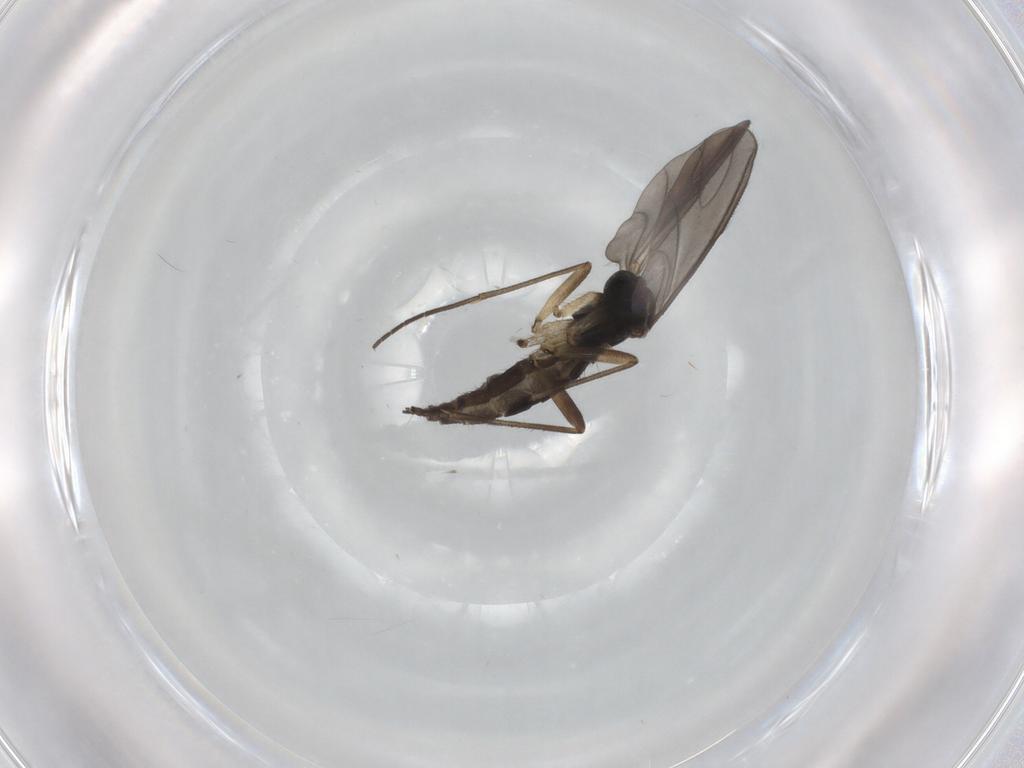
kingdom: Animalia
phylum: Arthropoda
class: Insecta
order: Diptera
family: Sciaridae
